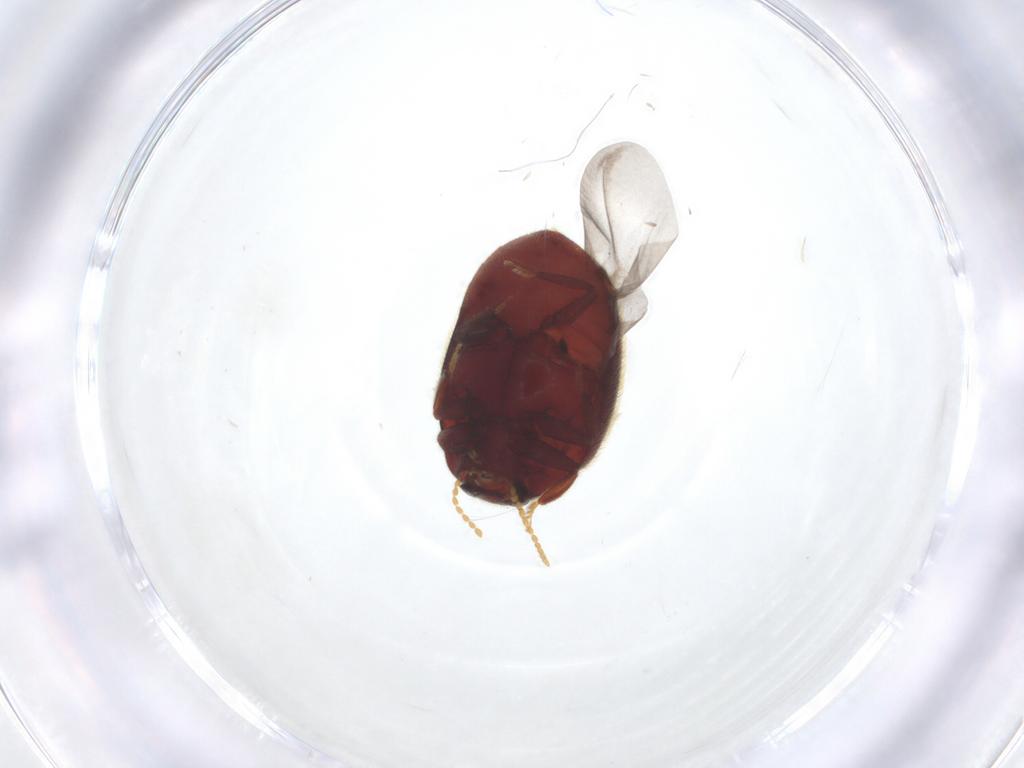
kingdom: Animalia
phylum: Arthropoda
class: Insecta
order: Coleoptera
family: Limnichidae
